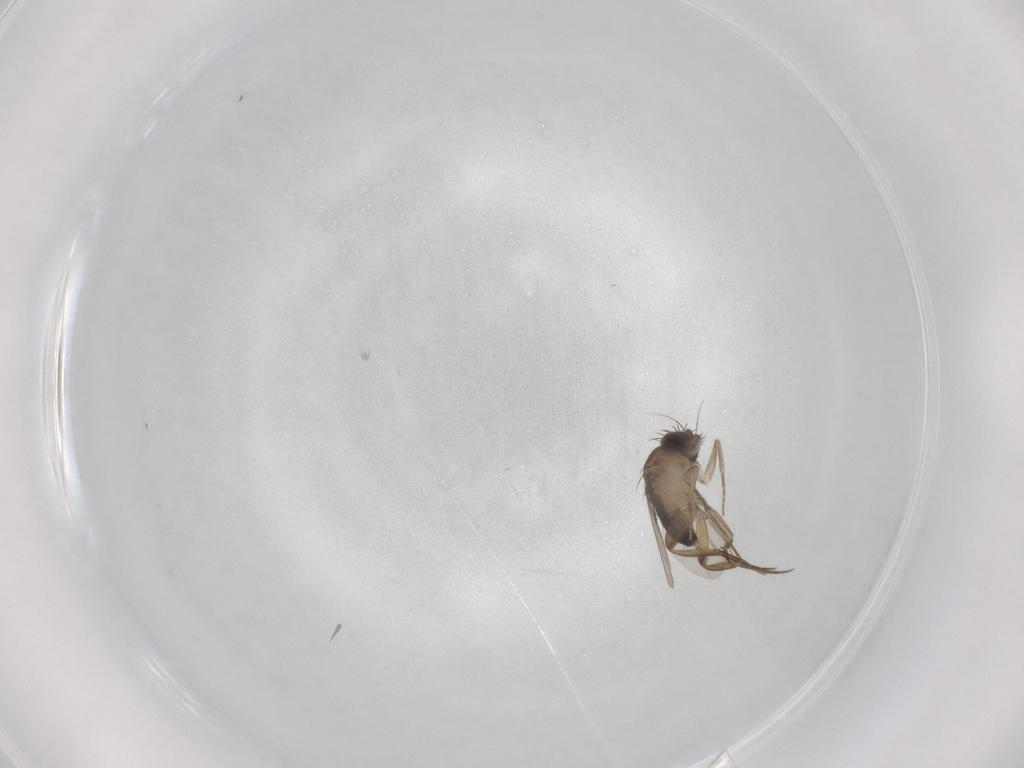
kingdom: Animalia
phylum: Arthropoda
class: Insecta
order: Diptera
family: Phoridae
